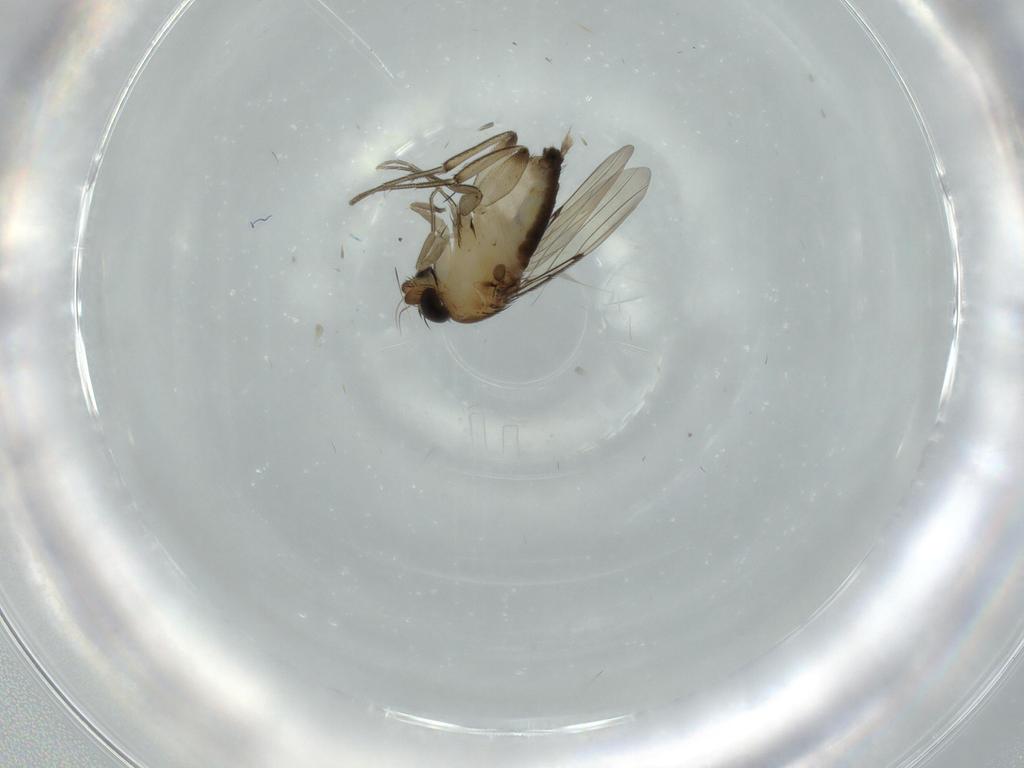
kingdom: Animalia
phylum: Arthropoda
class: Insecta
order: Diptera
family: Phoridae
